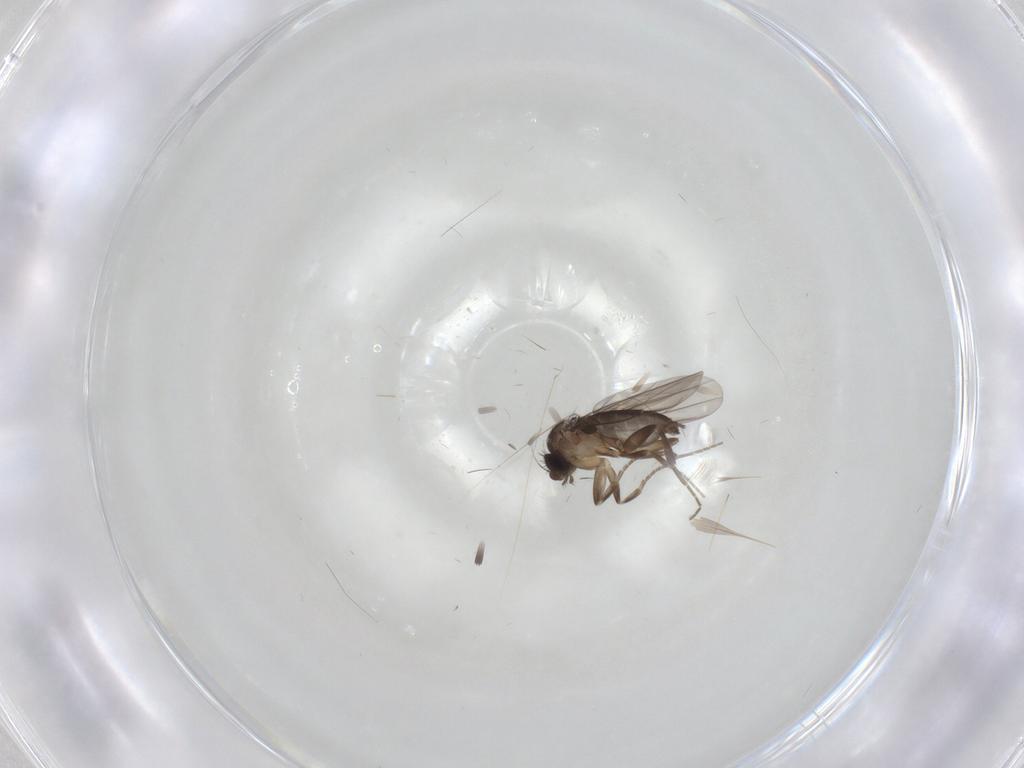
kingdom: Animalia
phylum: Arthropoda
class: Insecta
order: Diptera
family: Phoridae
